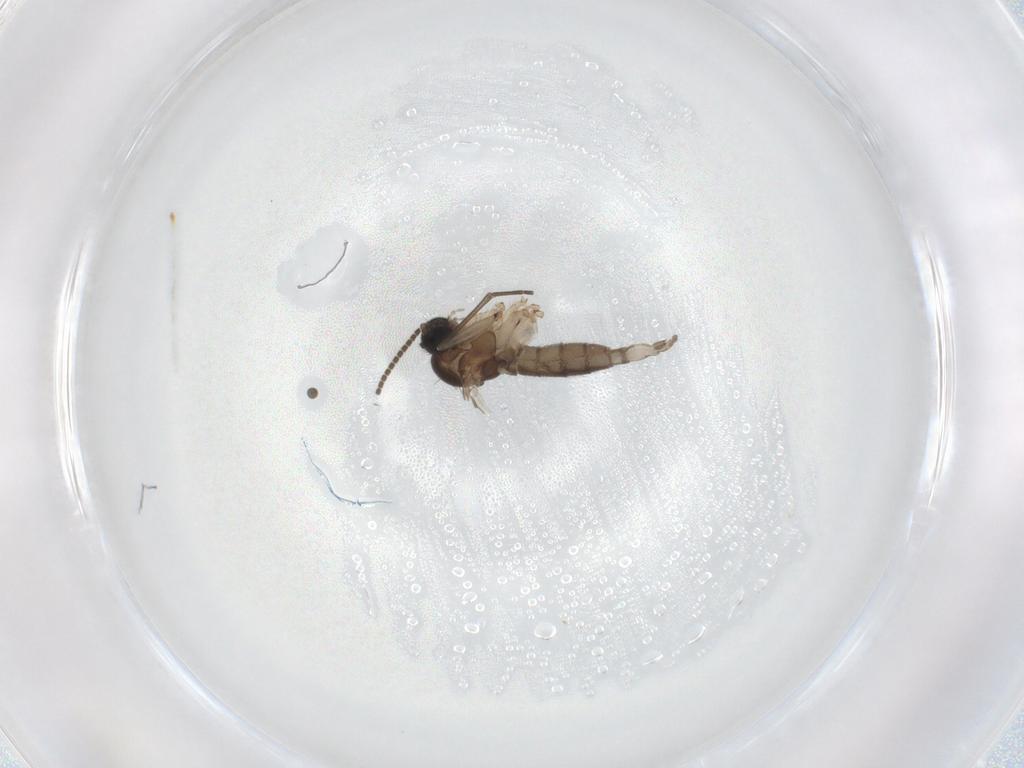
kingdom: Animalia
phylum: Arthropoda
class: Insecta
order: Diptera
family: Sciaridae
